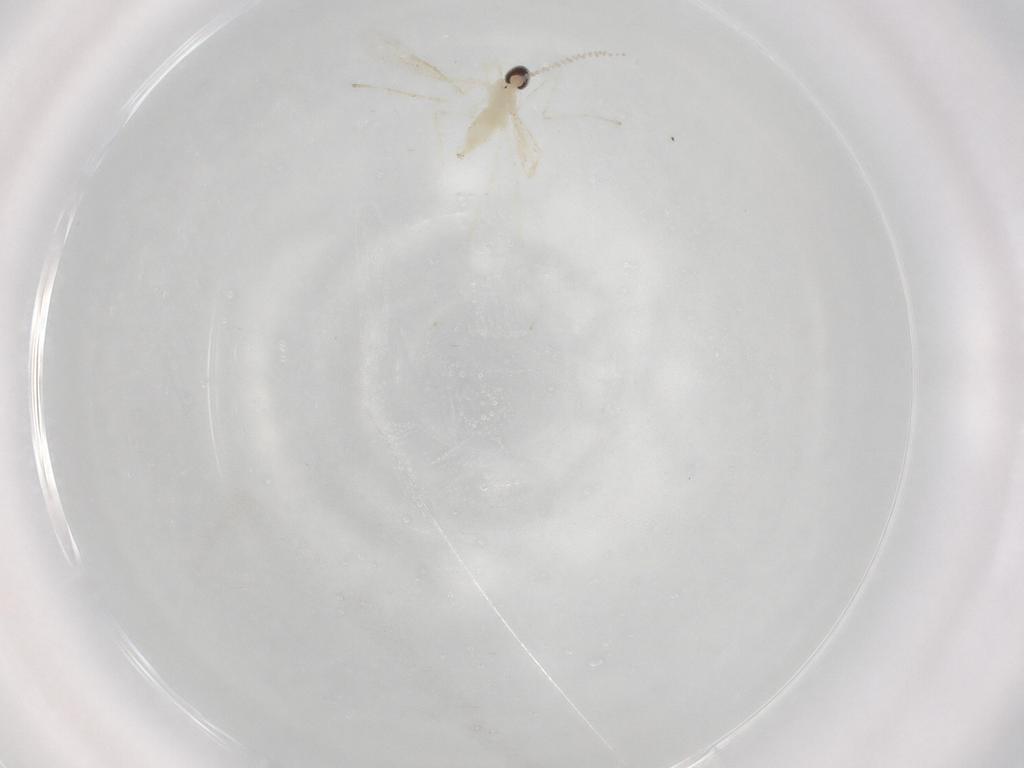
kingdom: Animalia
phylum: Arthropoda
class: Insecta
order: Diptera
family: Cecidomyiidae
